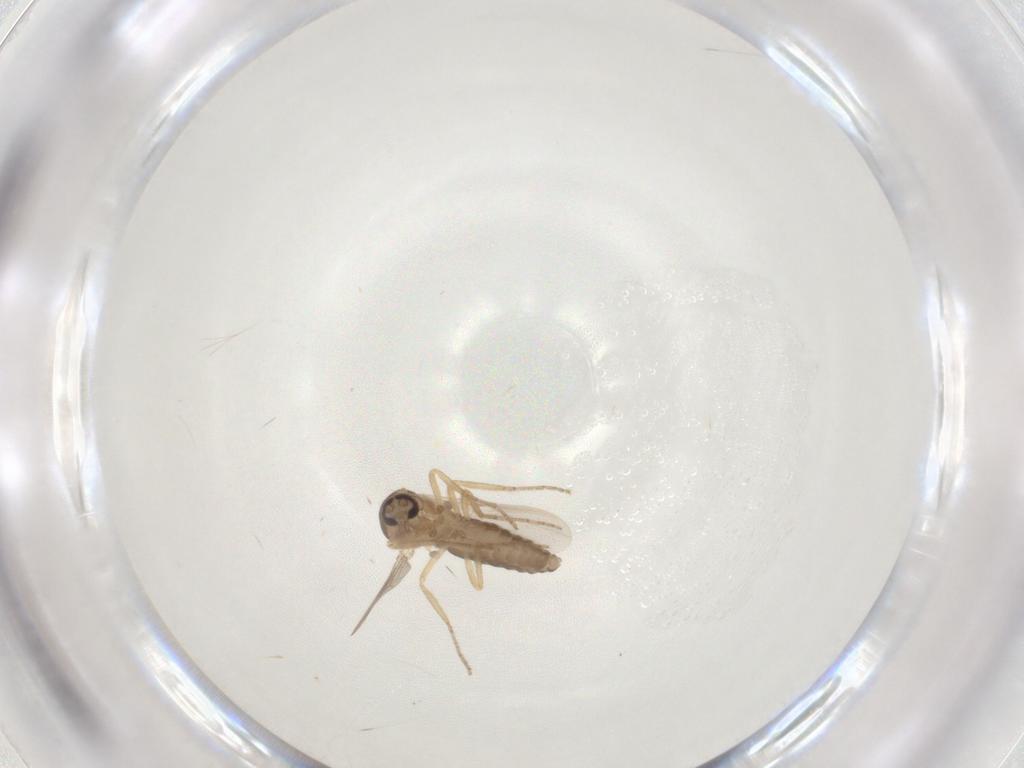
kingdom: Animalia
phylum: Arthropoda
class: Insecta
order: Diptera
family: Ceratopogonidae
